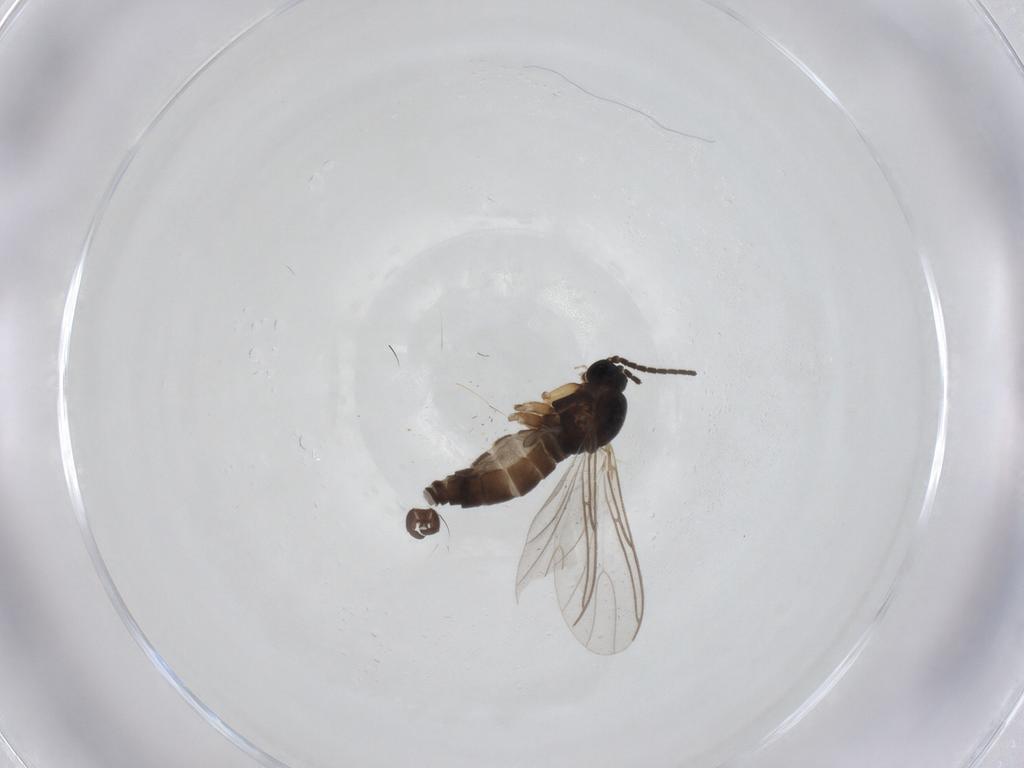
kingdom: Animalia
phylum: Arthropoda
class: Insecta
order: Diptera
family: Sciaridae
